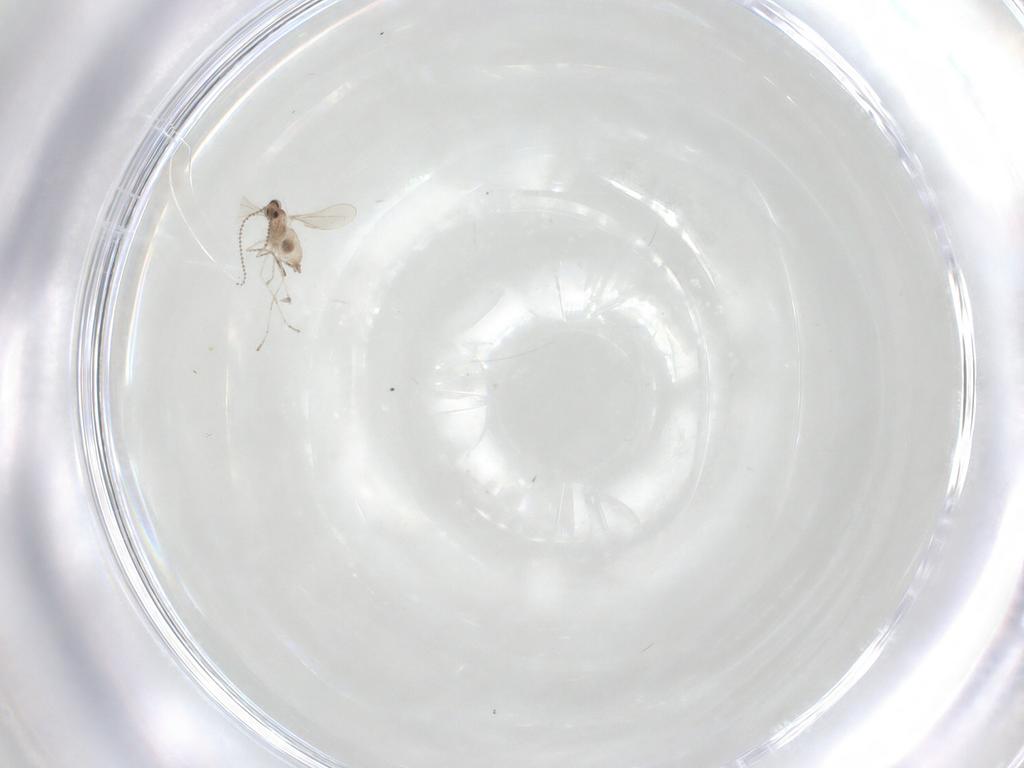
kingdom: Animalia
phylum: Arthropoda
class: Insecta
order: Diptera
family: Cecidomyiidae
